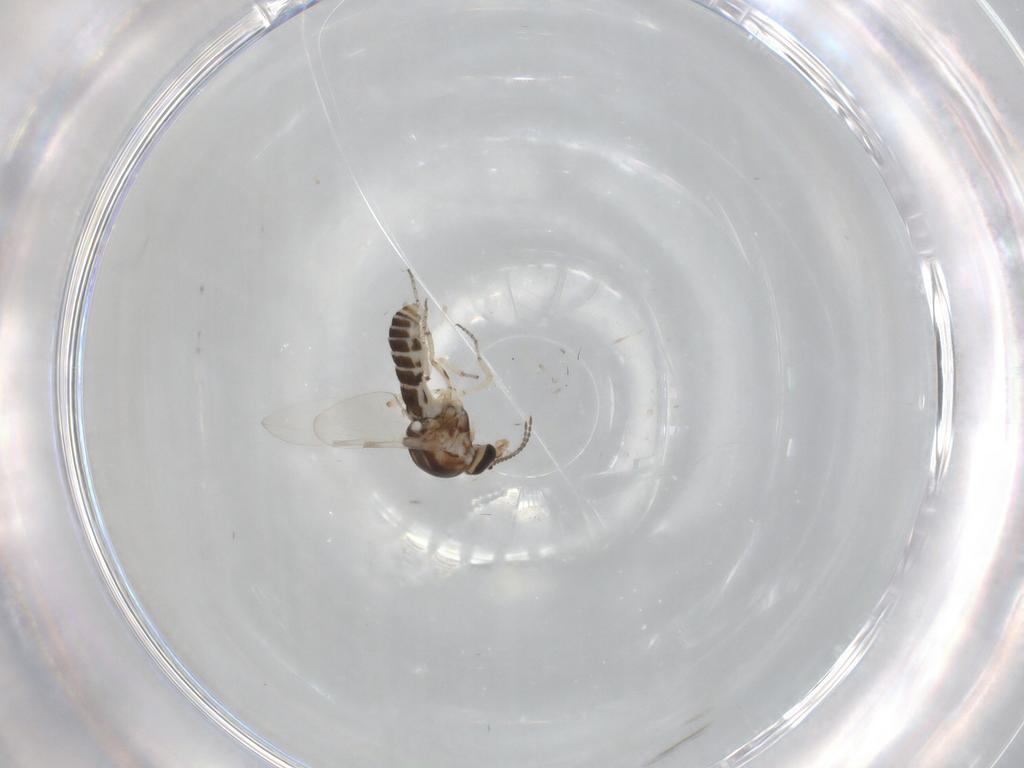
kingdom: Animalia
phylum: Arthropoda
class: Insecta
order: Diptera
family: Ceratopogonidae
